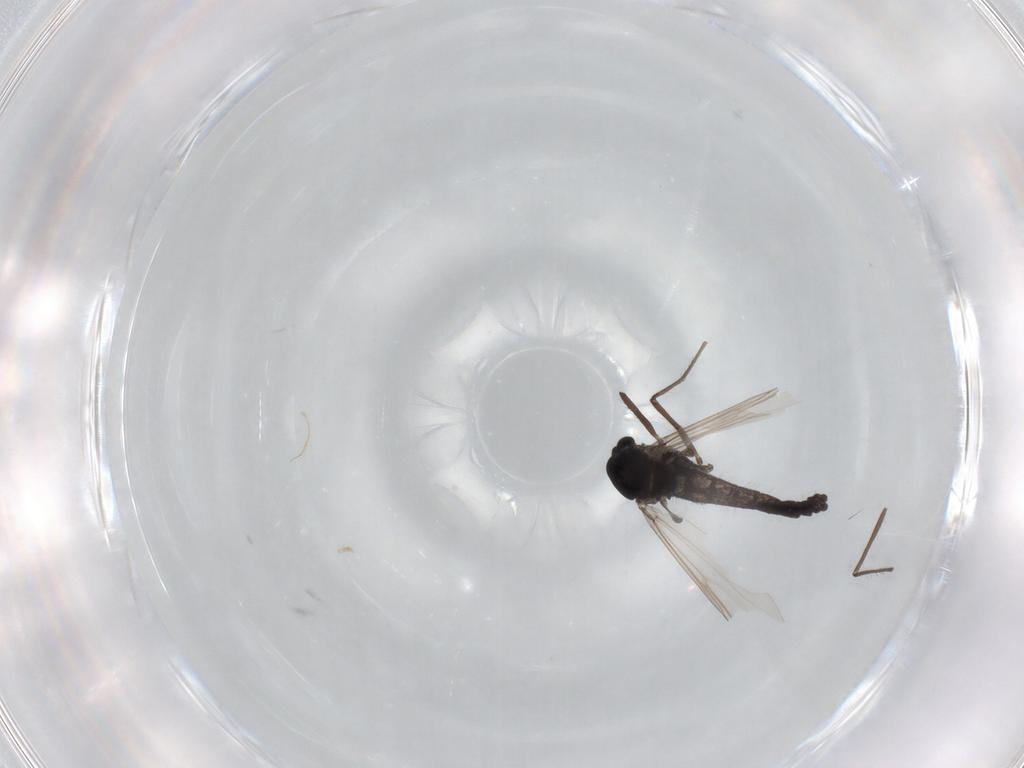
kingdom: Animalia
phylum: Arthropoda
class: Insecta
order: Diptera
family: Chironomidae
